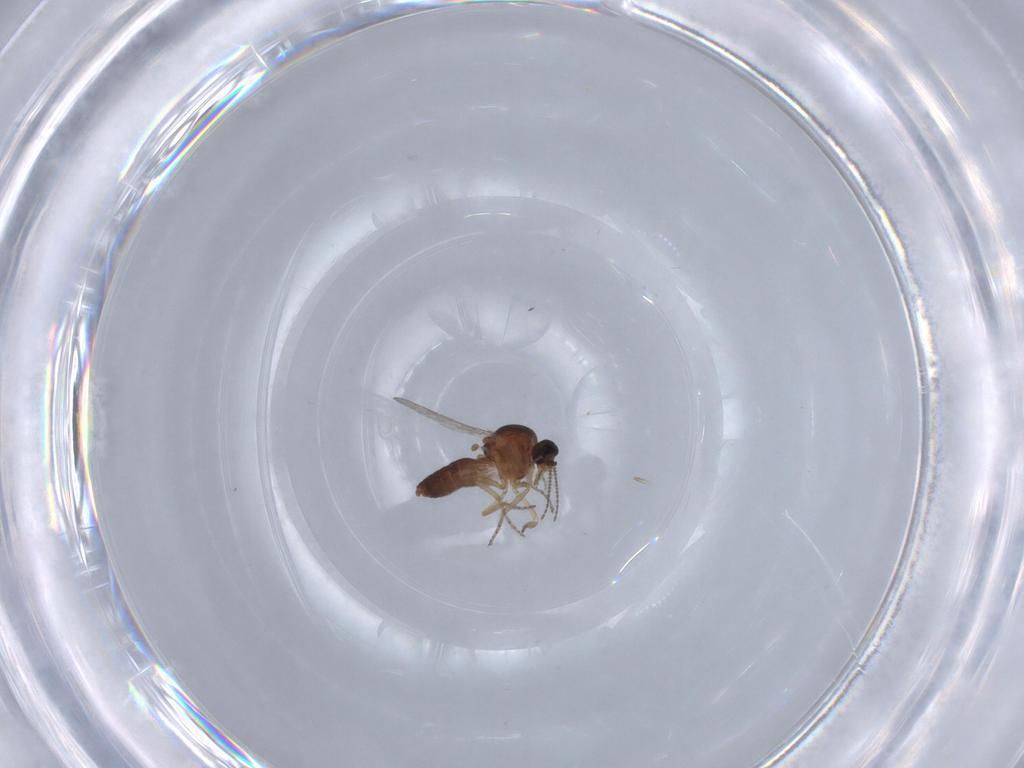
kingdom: Animalia
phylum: Arthropoda
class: Insecta
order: Diptera
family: Ceratopogonidae
